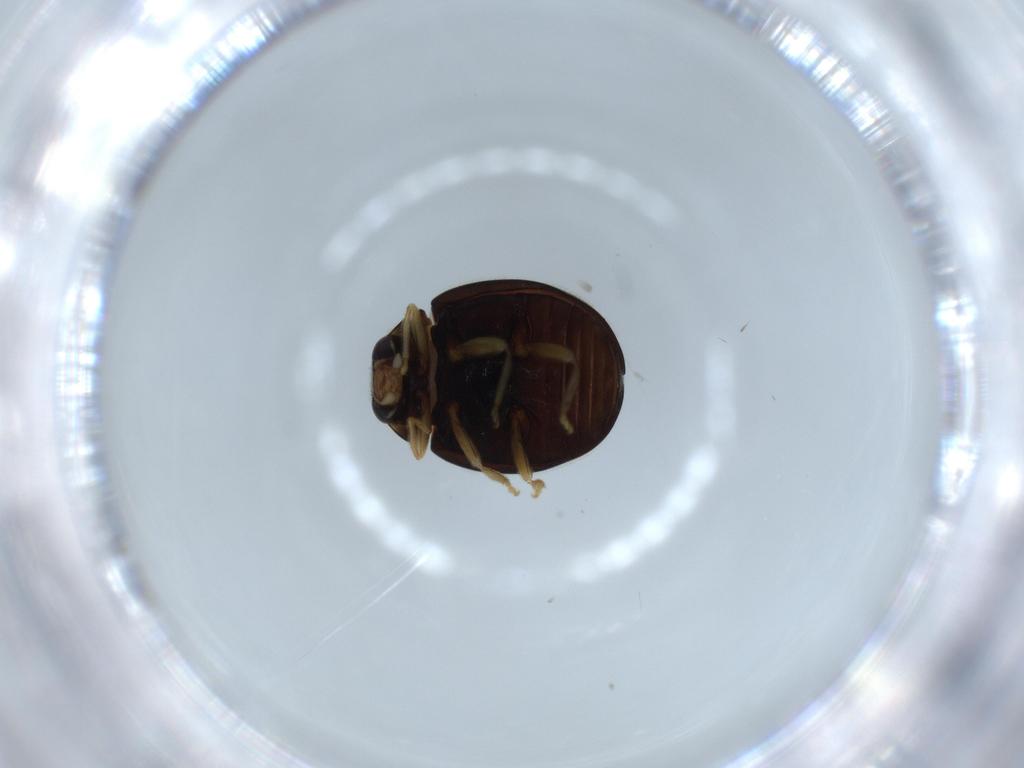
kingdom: Animalia
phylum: Arthropoda
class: Insecta
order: Coleoptera
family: Coccinellidae
